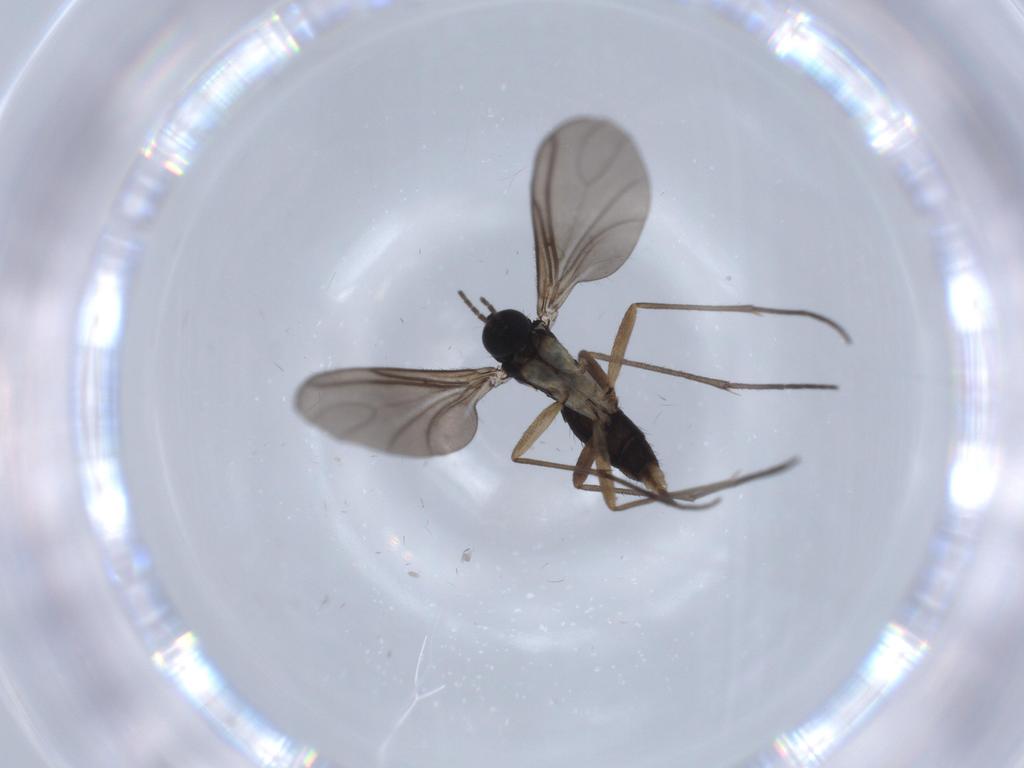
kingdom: Animalia
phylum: Arthropoda
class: Insecta
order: Diptera
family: Sciaridae
